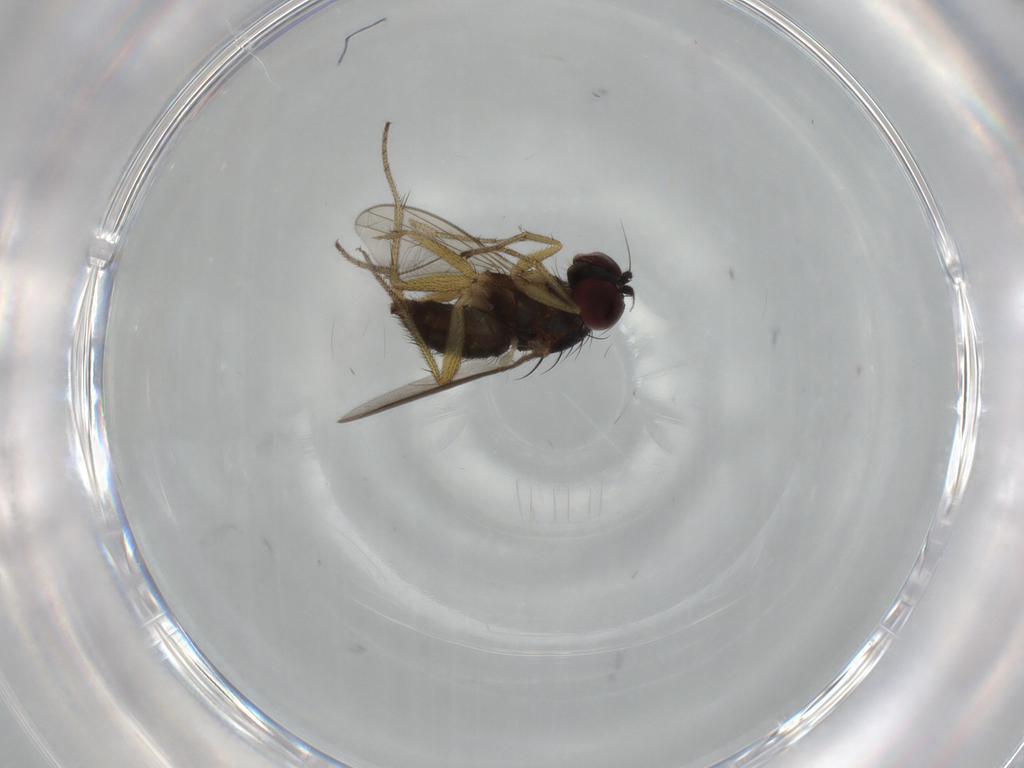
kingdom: Animalia
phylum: Arthropoda
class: Insecta
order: Diptera
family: Dolichopodidae
